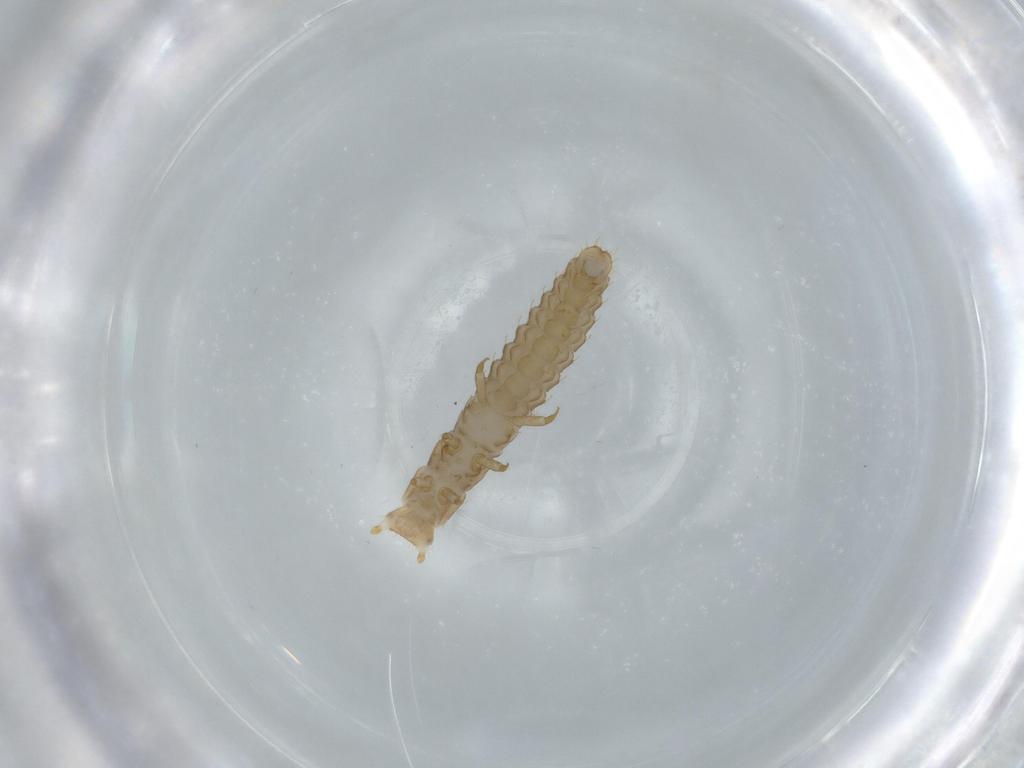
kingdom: Animalia
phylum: Arthropoda
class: Insecta
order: Coleoptera
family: Lycidae
